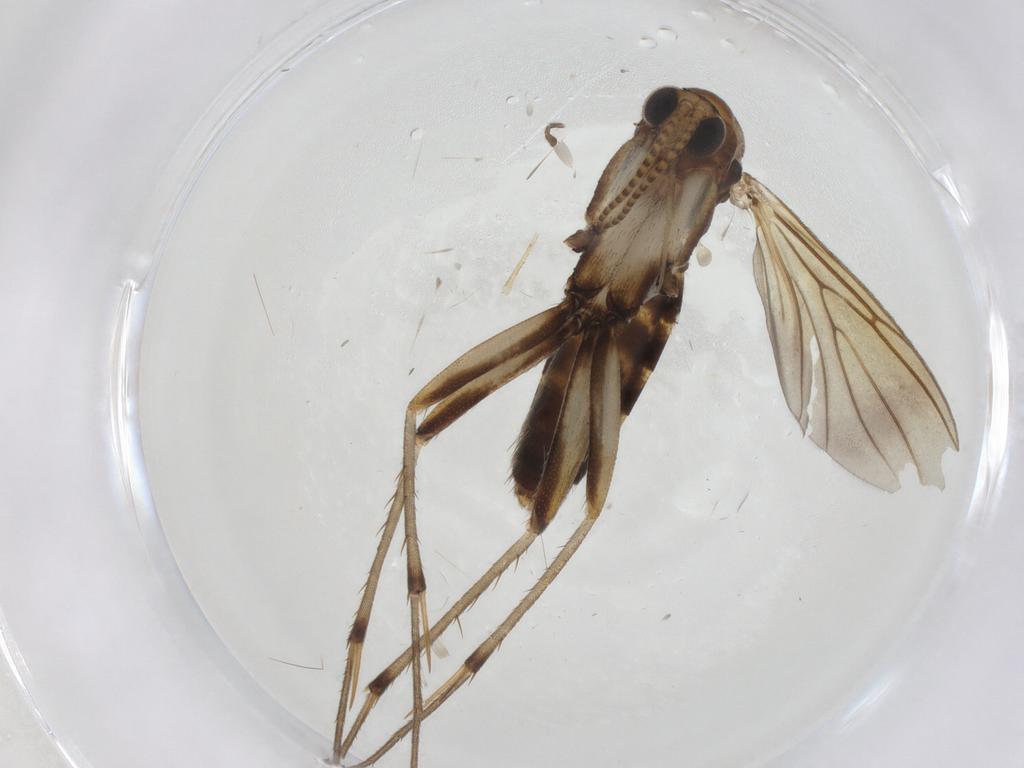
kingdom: Animalia
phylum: Arthropoda
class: Insecta
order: Diptera
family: Mycetophilidae
